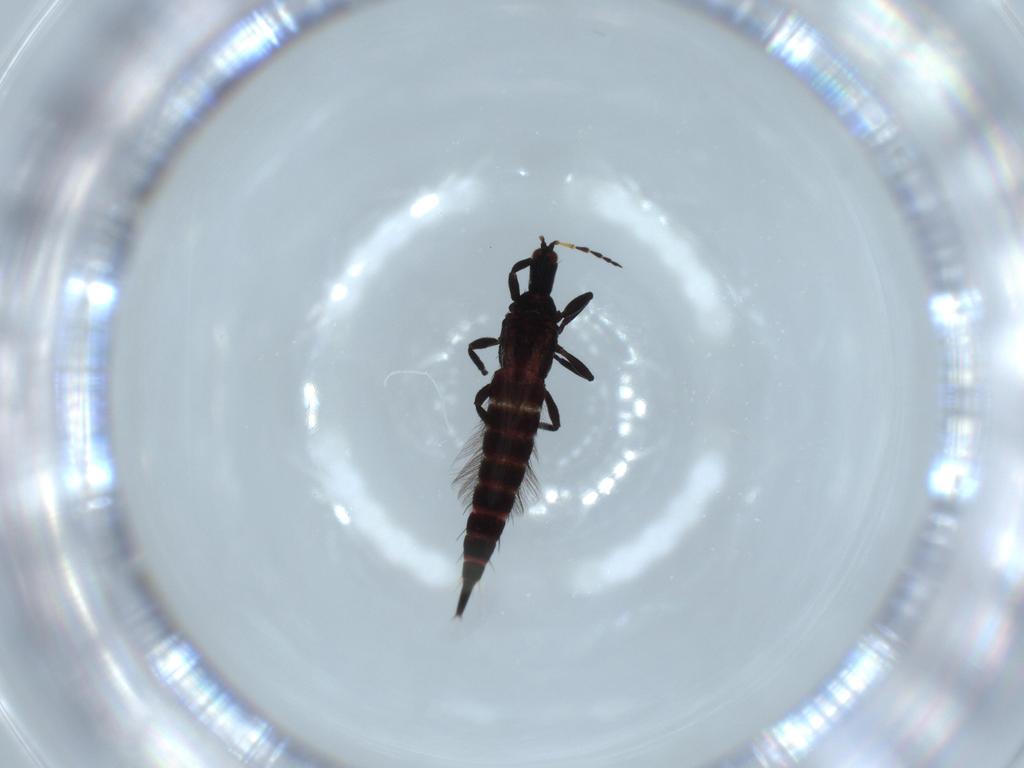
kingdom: Animalia
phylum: Arthropoda
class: Insecta
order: Thysanoptera
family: Phlaeothripidae
